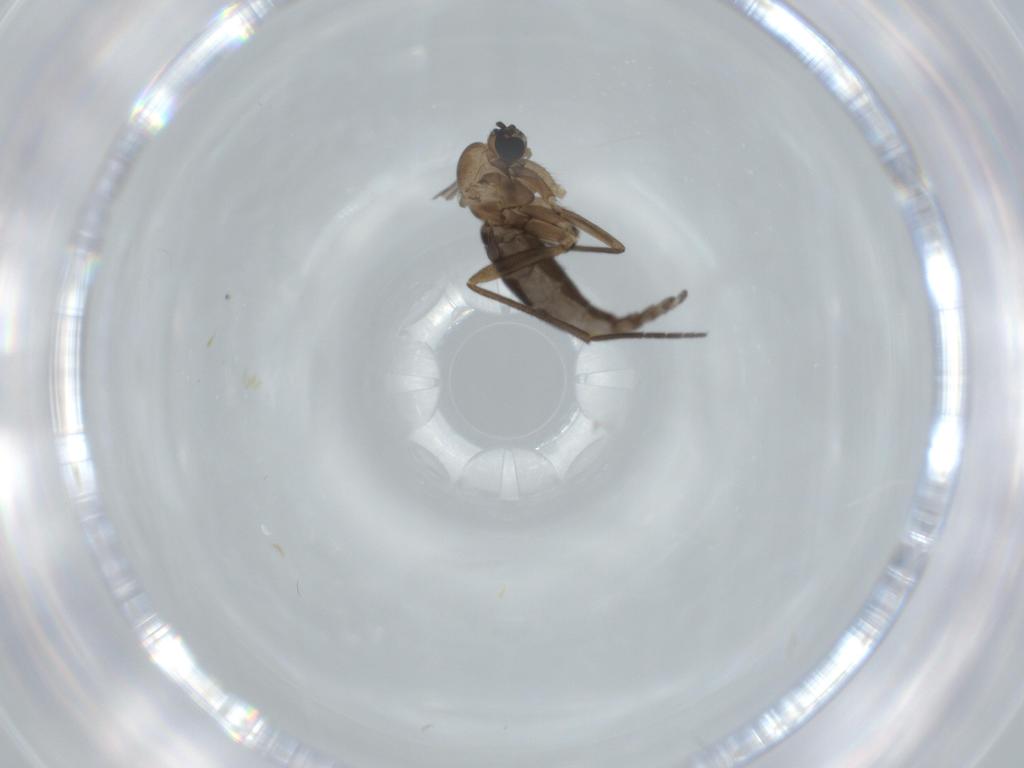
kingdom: Animalia
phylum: Arthropoda
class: Insecta
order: Diptera
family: Sciaridae
